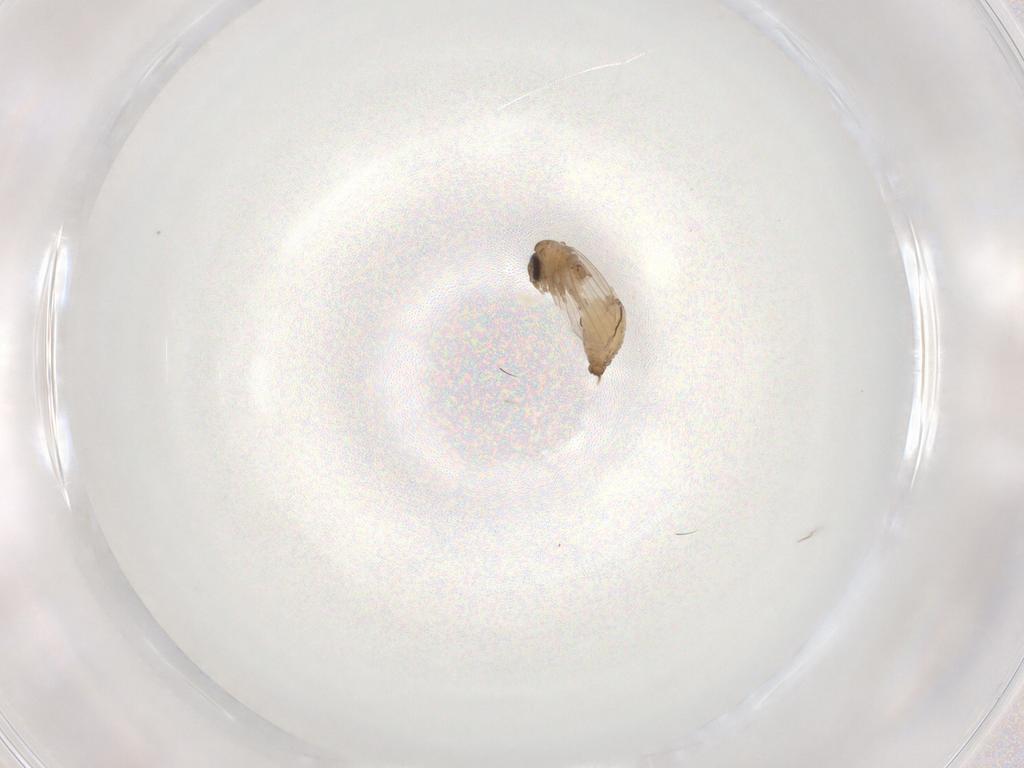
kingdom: Animalia
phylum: Arthropoda
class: Insecta
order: Diptera
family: Psychodidae
